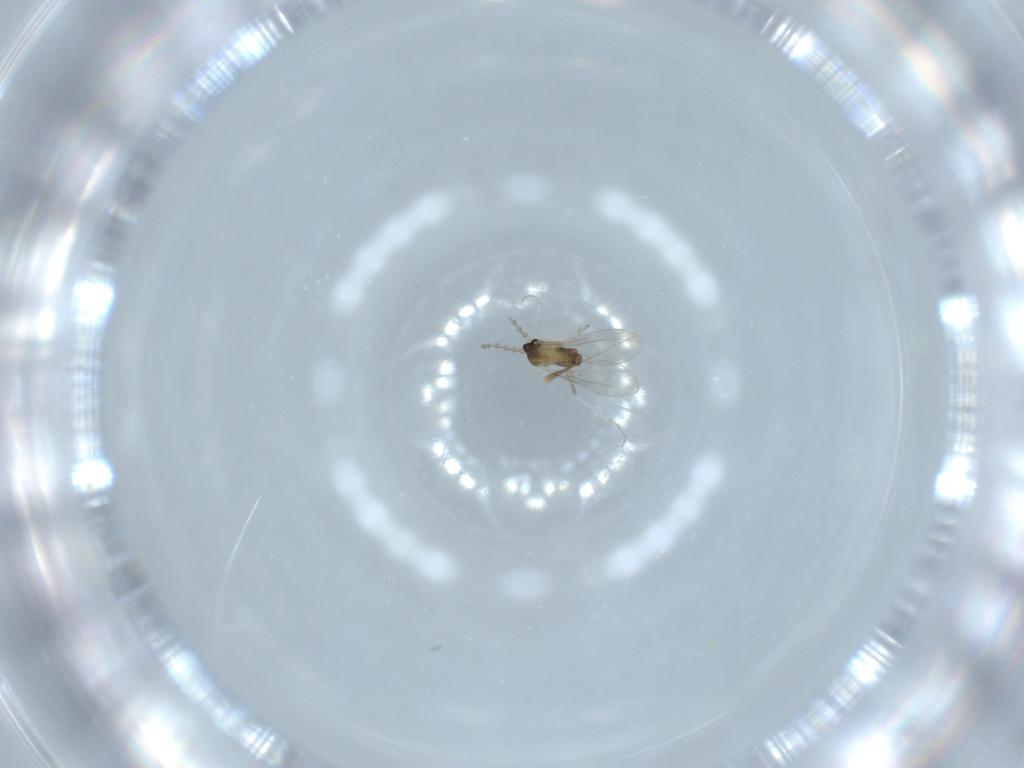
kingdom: Animalia
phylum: Arthropoda
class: Insecta
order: Diptera
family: Cecidomyiidae
